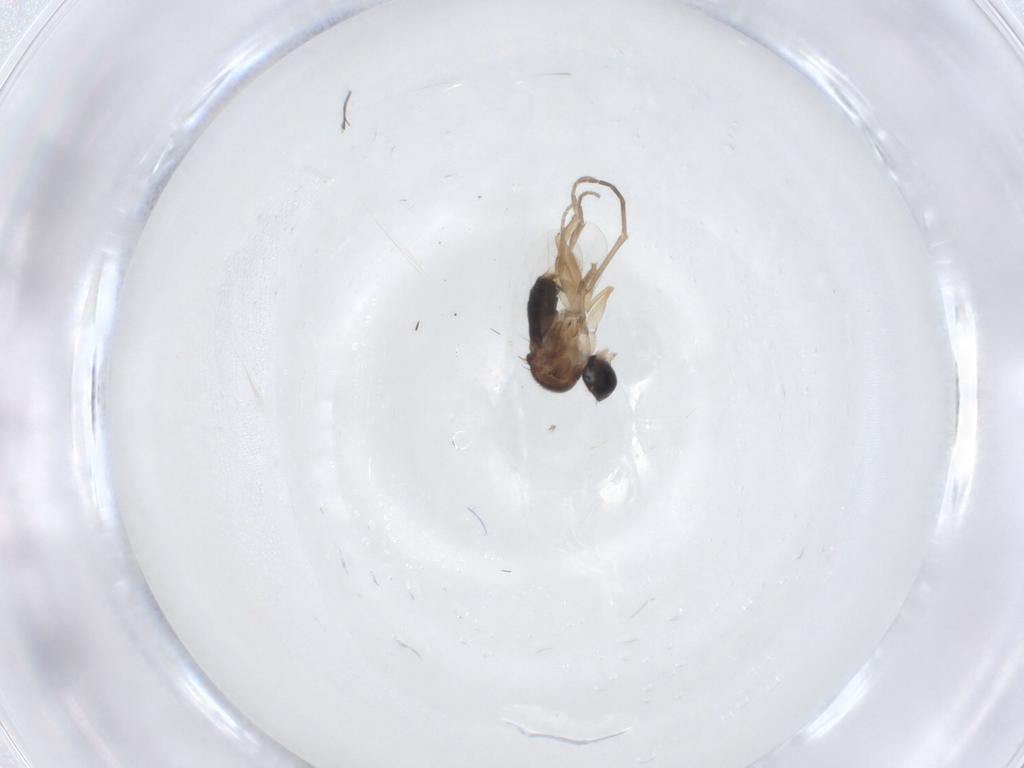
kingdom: Animalia
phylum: Arthropoda
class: Insecta
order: Diptera
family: Phoridae
